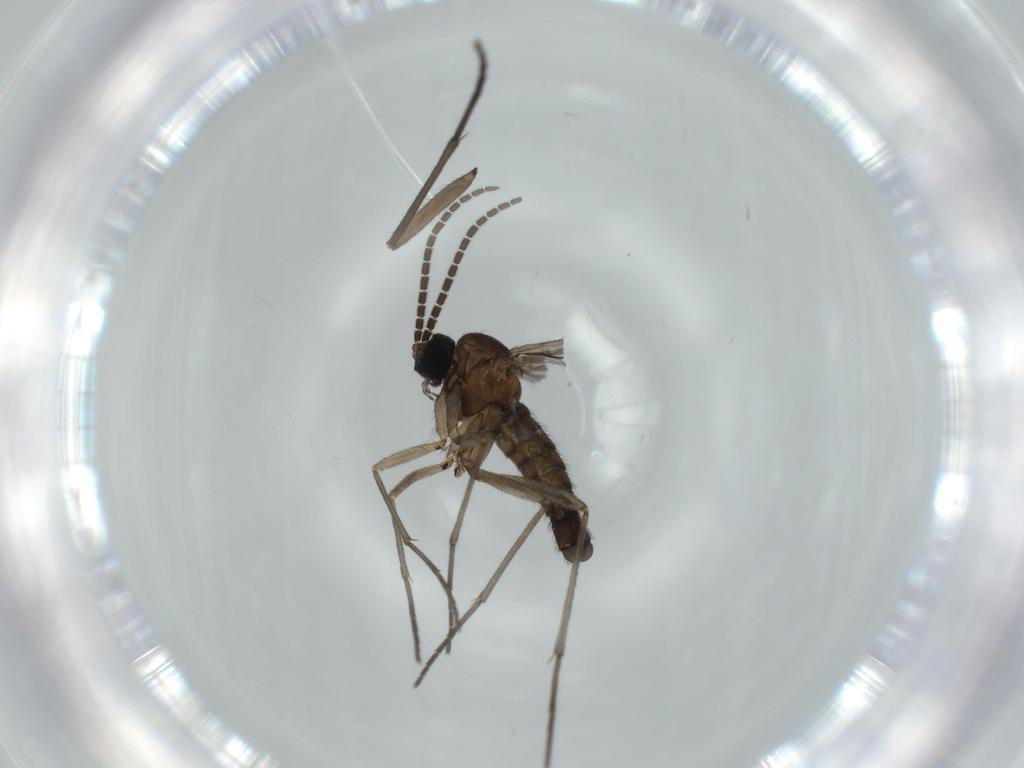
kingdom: Animalia
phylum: Arthropoda
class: Insecta
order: Diptera
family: Sciaridae
